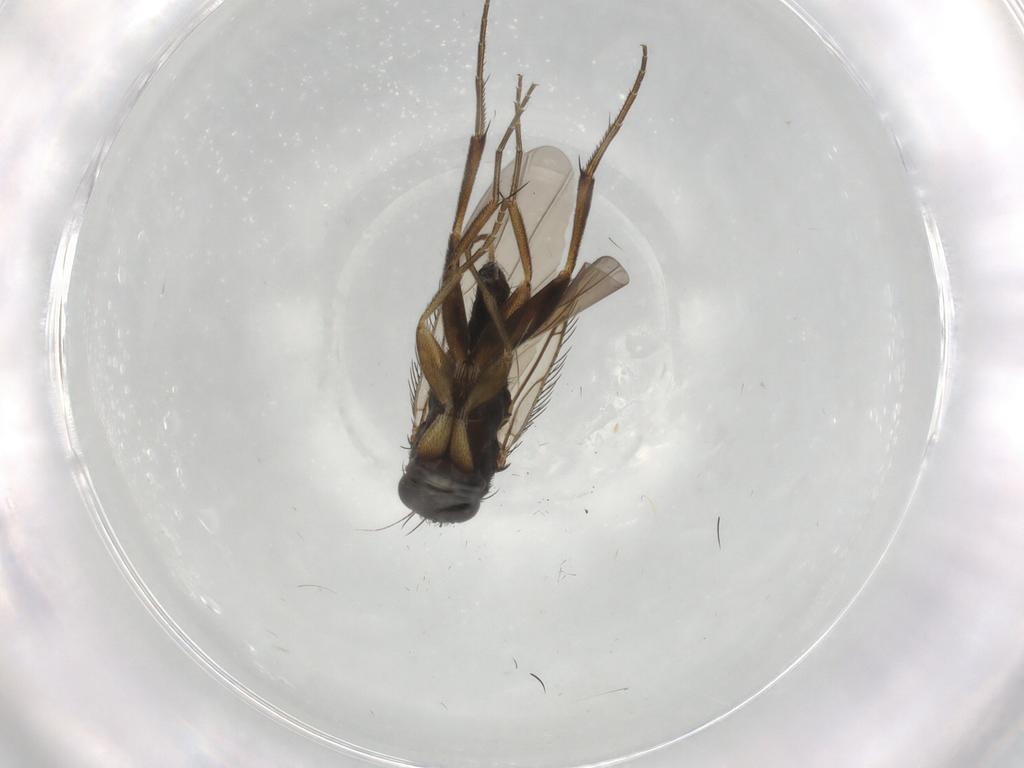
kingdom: Animalia
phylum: Arthropoda
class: Insecta
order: Diptera
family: Phoridae
